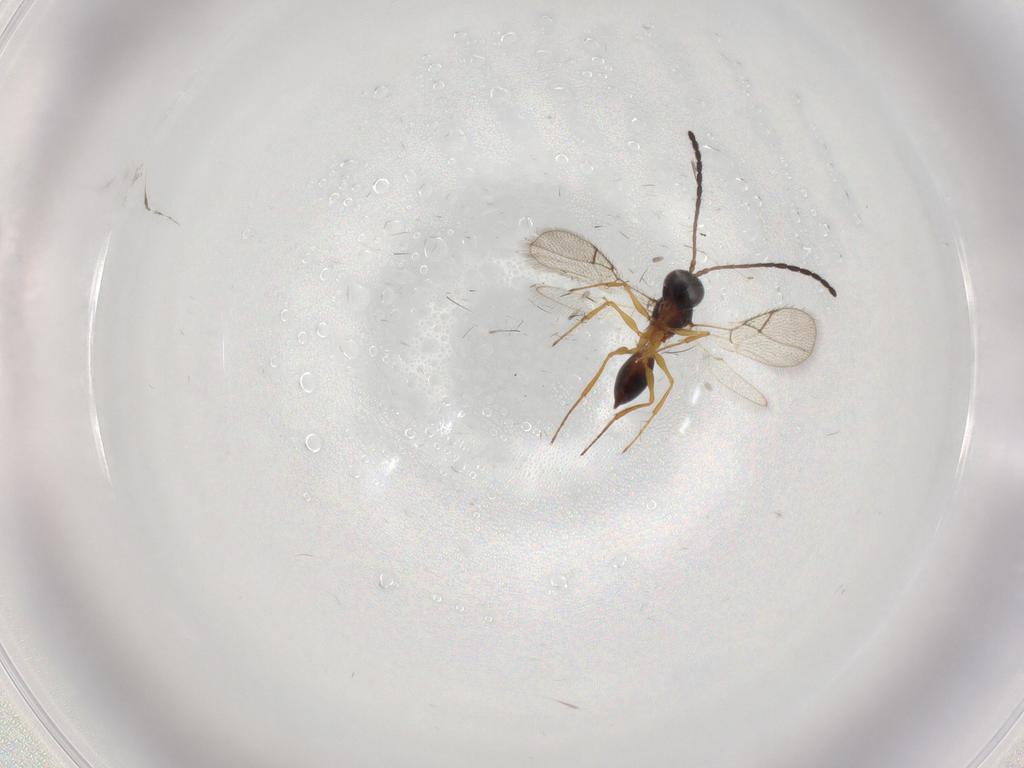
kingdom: Animalia
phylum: Arthropoda
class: Insecta
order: Hymenoptera
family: Figitidae
